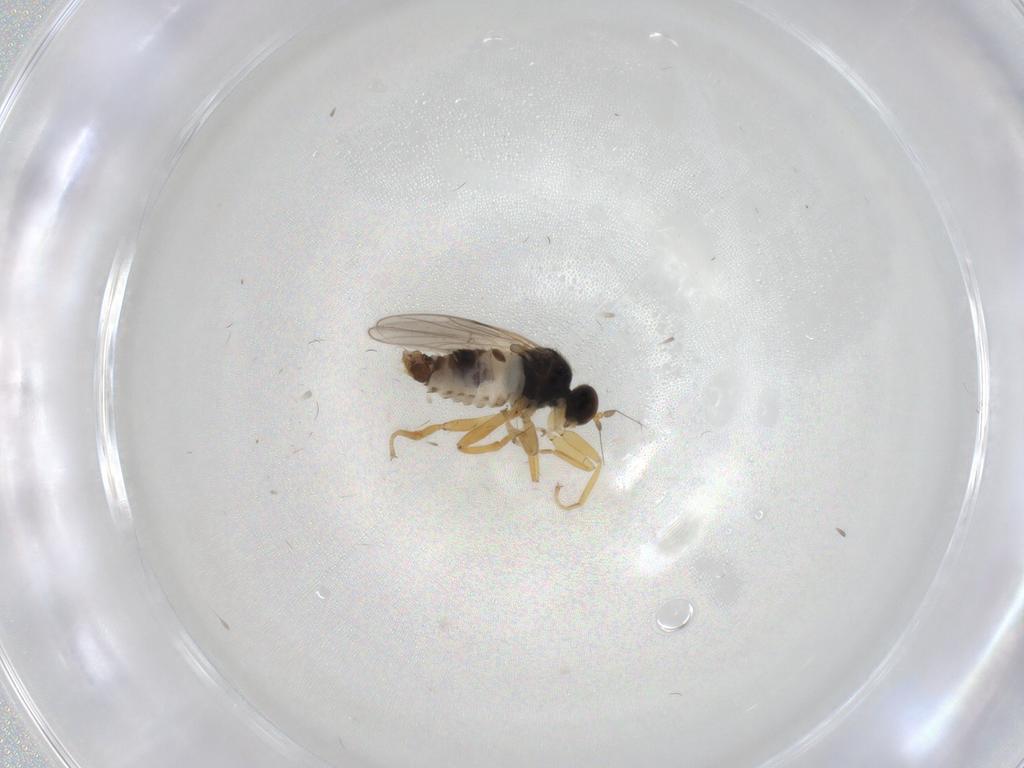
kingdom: Animalia
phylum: Arthropoda
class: Insecta
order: Diptera
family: Hybotidae
